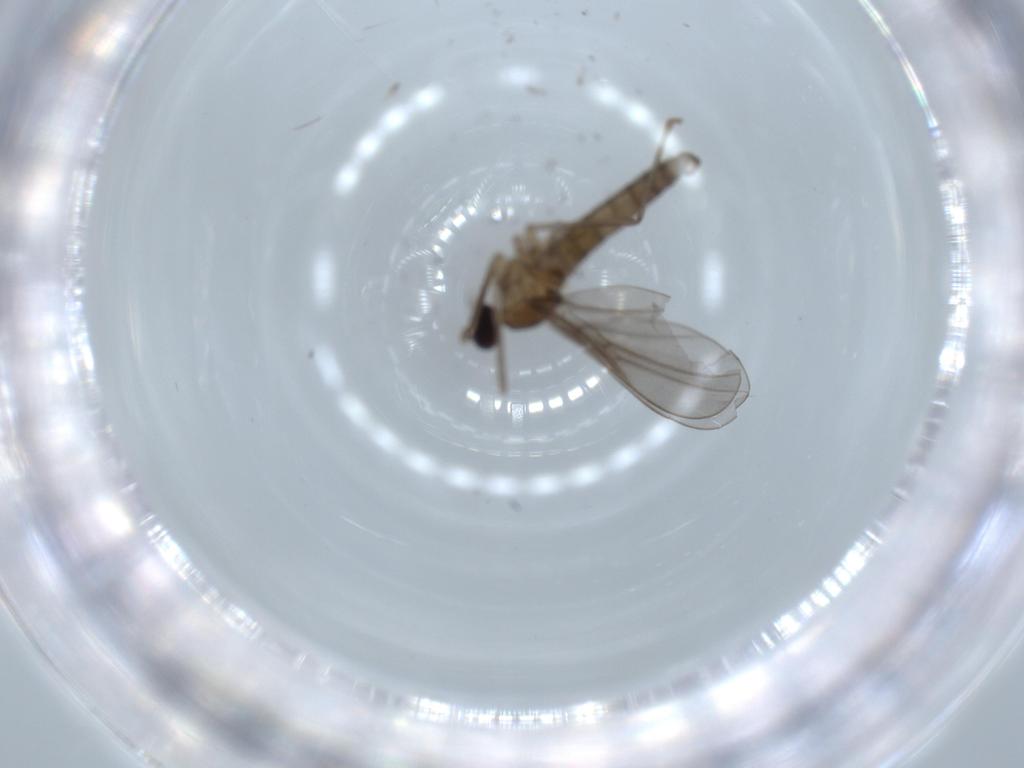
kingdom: Animalia
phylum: Arthropoda
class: Insecta
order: Diptera
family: Cecidomyiidae
